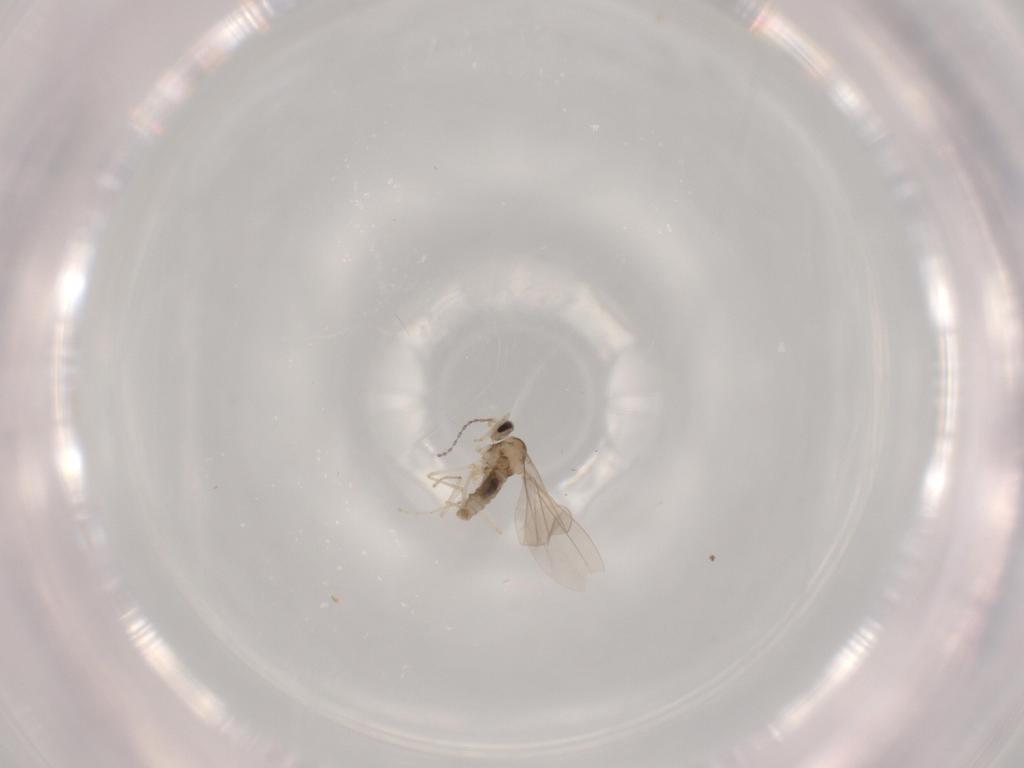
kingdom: Animalia
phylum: Arthropoda
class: Insecta
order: Diptera
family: Cecidomyiidae
